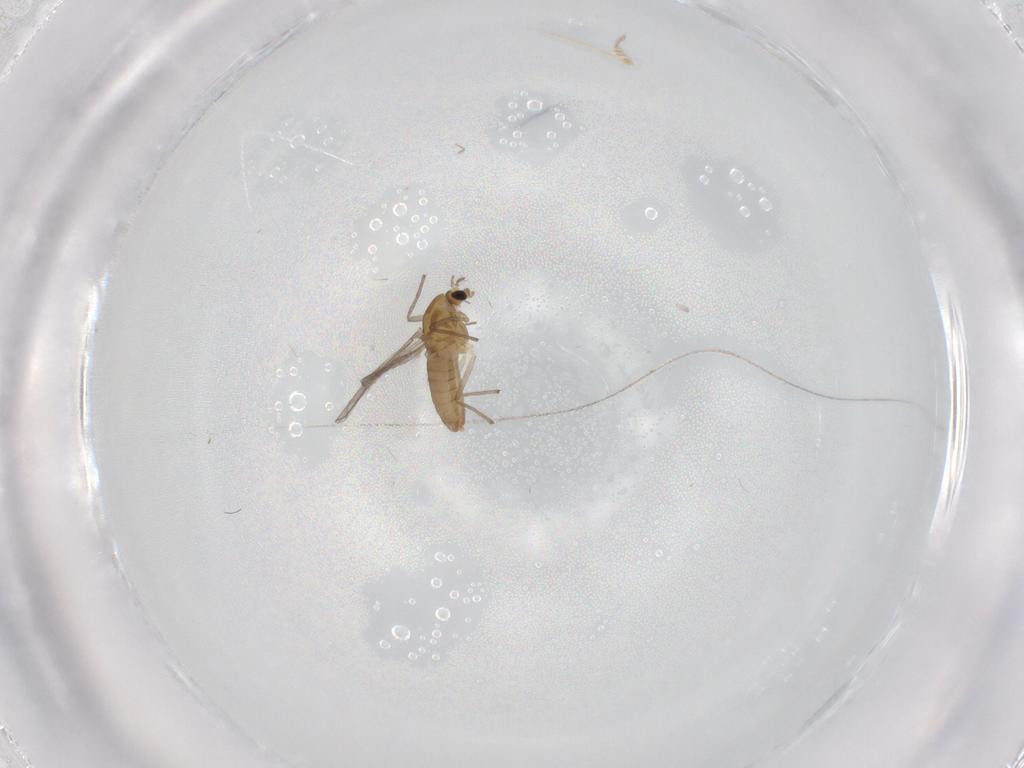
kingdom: Animalia
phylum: Arthropoda
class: Insecta
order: Diptera
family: Chironomidae
